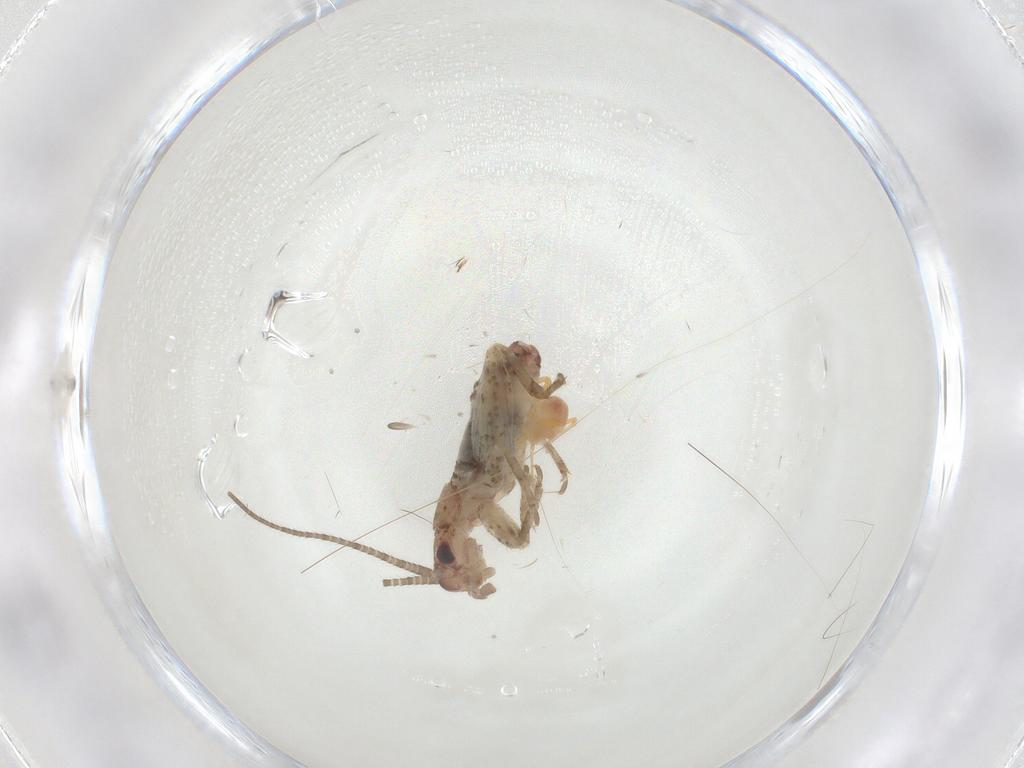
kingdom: Animalia
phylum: Arthropoda
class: Insecta
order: Orthoptera
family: Gryllidae
